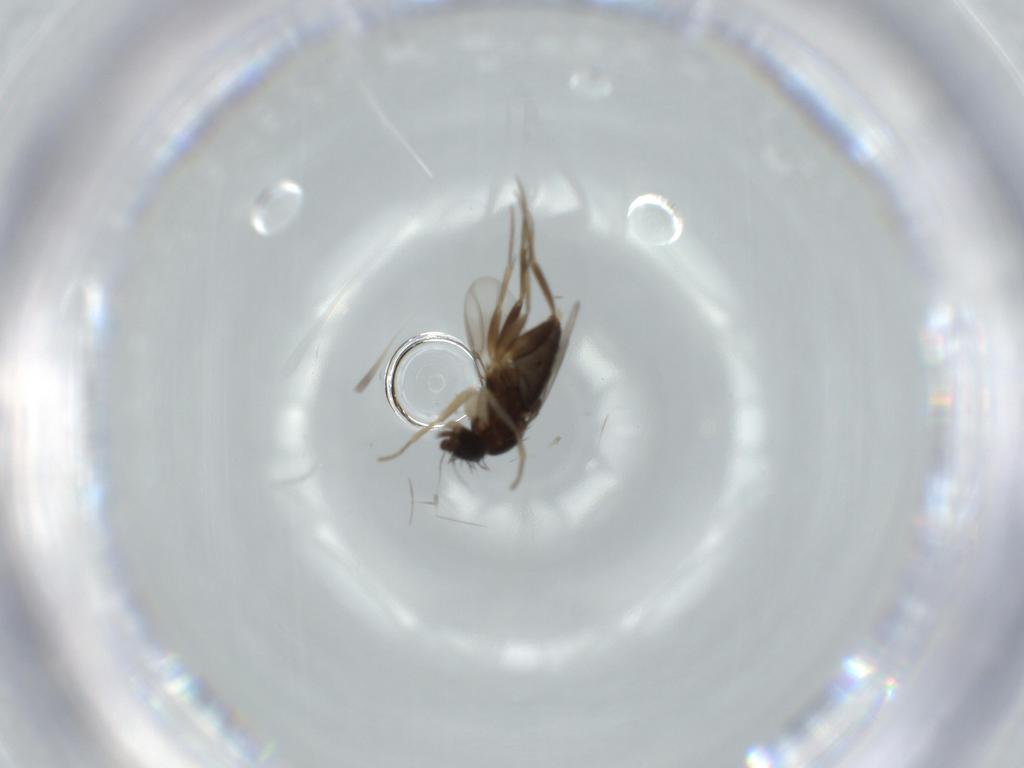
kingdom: Animalia
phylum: Arthropoda
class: Insecta
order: Diptera
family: Phoridae
